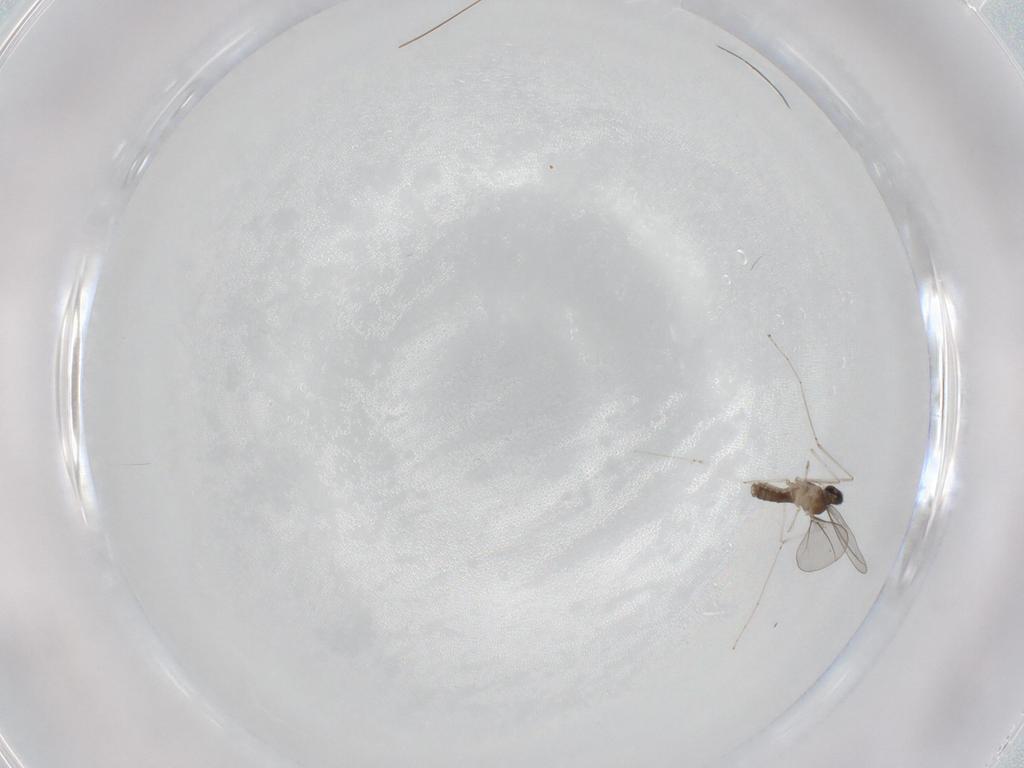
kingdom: Animalia
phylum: Arthropoda
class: Insecta
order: Diptera
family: Cecidomyiidae
